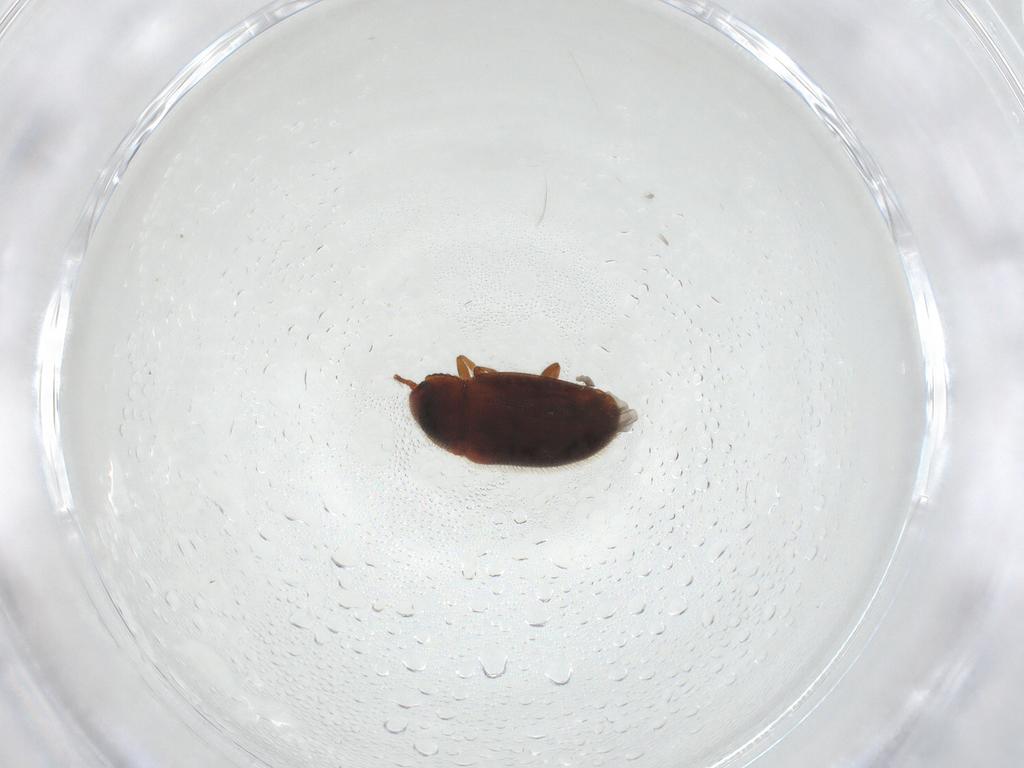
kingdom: Animalia
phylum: Arthropoda
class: Insecta
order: Coleoptera
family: Erotylidae
